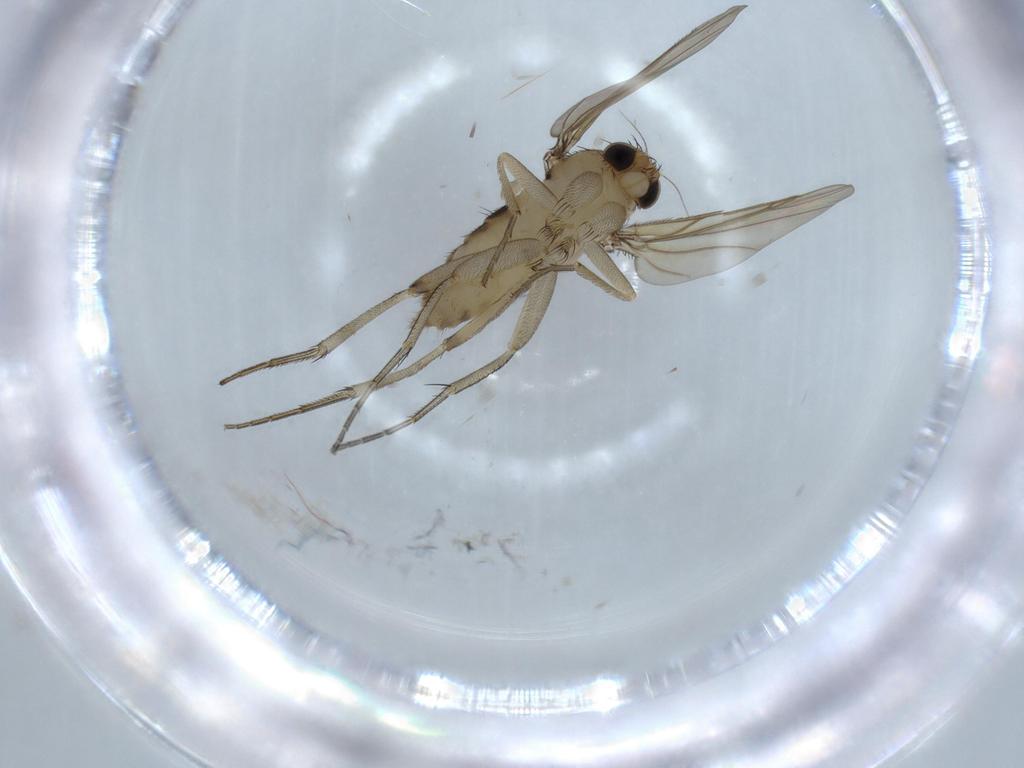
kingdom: Animalia
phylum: Arthropoda
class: Insecta
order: Diptera
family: Phoridae
